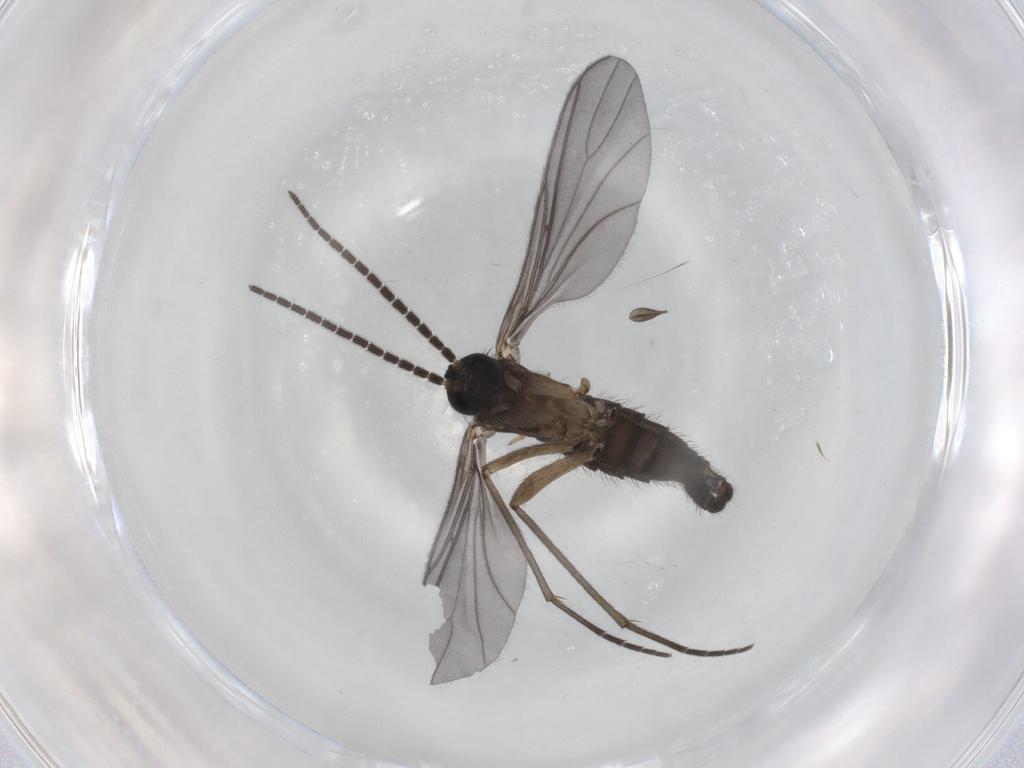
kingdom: Animalia
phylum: Arthropoda
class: Insecta
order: Diptera
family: Sciaridae
